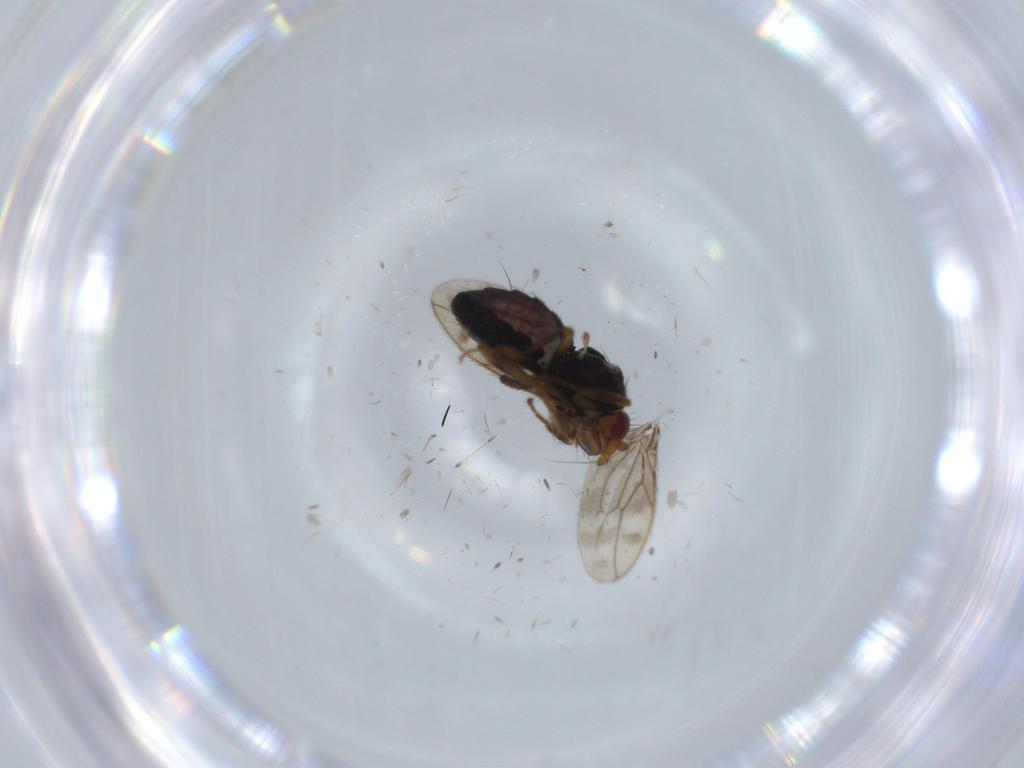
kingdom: Animalia
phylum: Arthropoda
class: Insecta
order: Diptera
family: Sphaeroceridae
